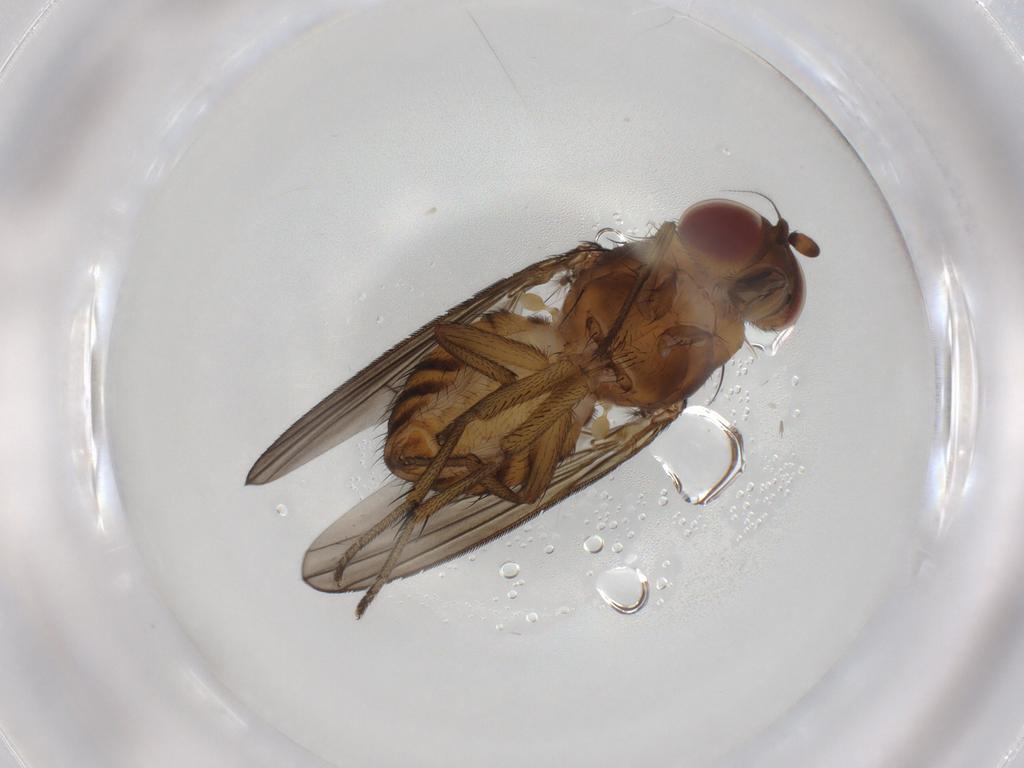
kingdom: Animalia
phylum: Arthropoda
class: Insecta
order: Diptera
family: Lauxaniidae
